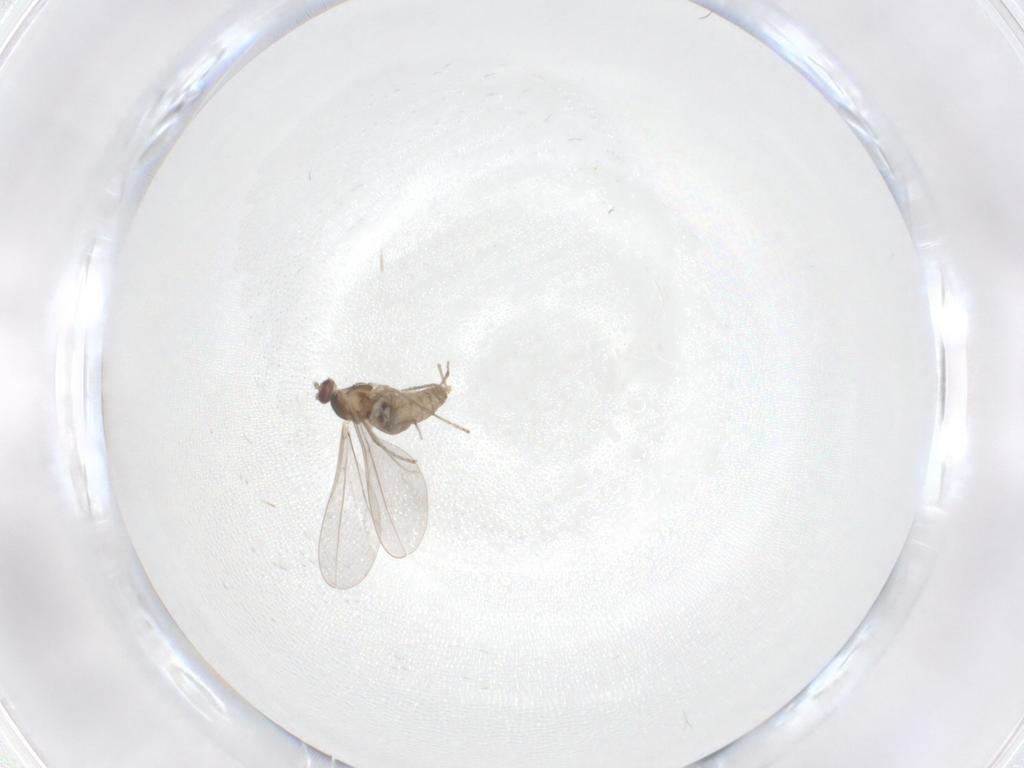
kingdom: Animalia
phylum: Arthropoda
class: Insecta
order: Diptera
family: Cecidomyiidae
